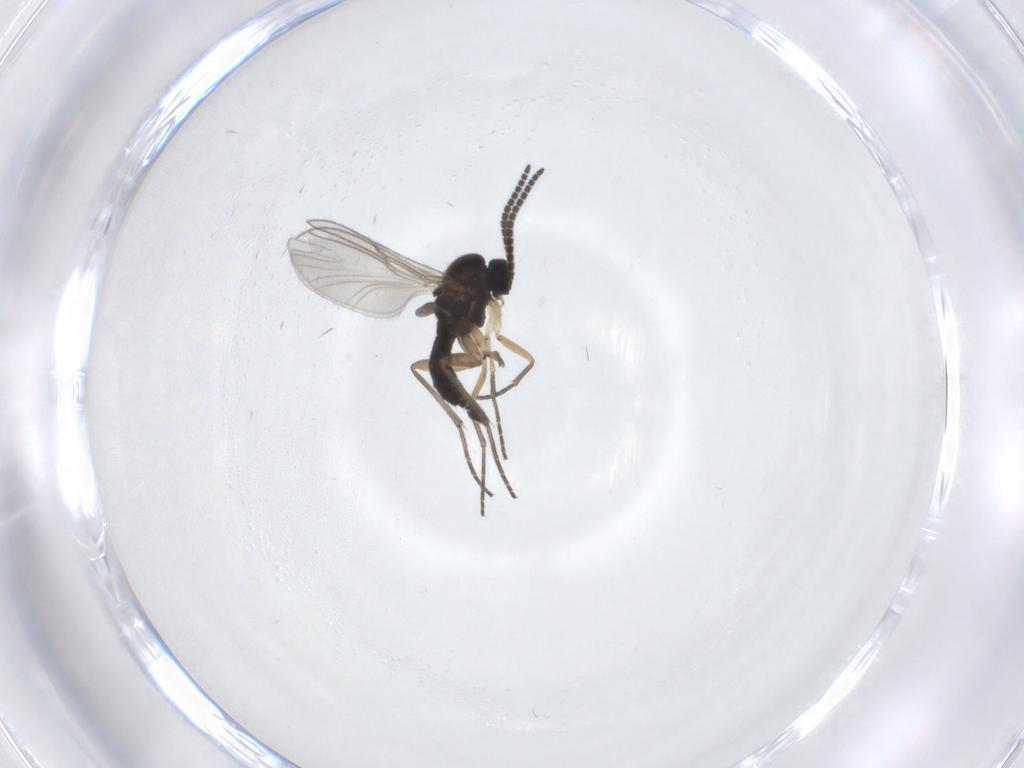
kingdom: Animalia
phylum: Arthropoda
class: Insecta
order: Diptera
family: Sciaridae
